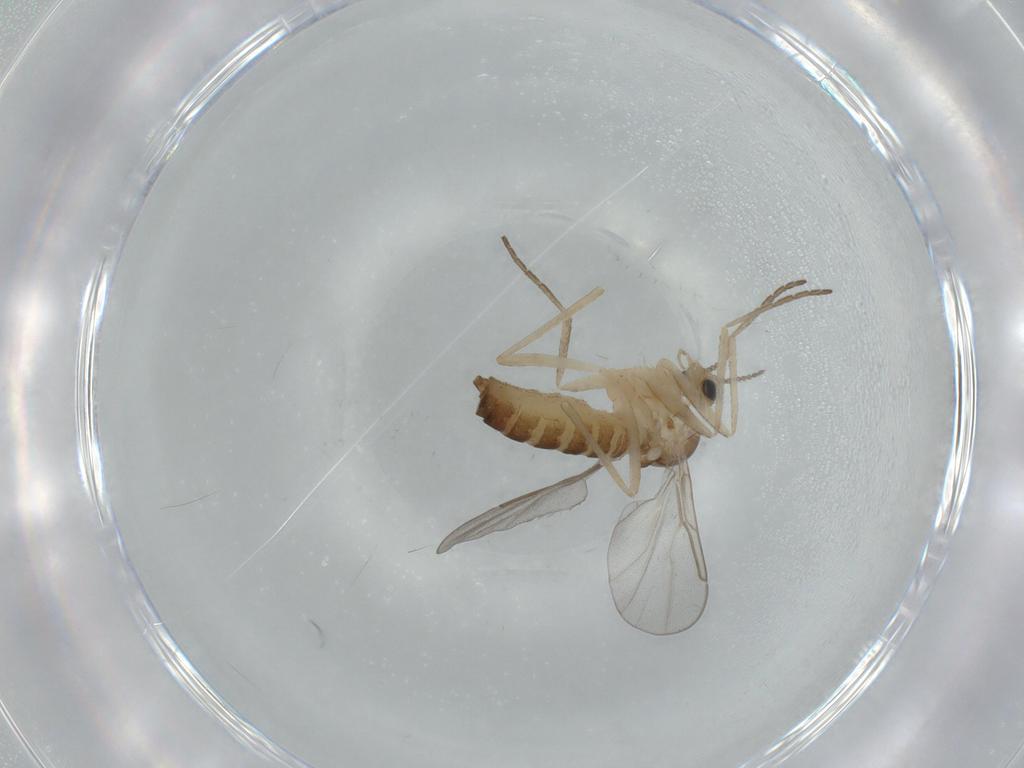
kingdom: Animalia
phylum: Arthropoda
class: Insecta
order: Diptera
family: Cecidomyiidae
